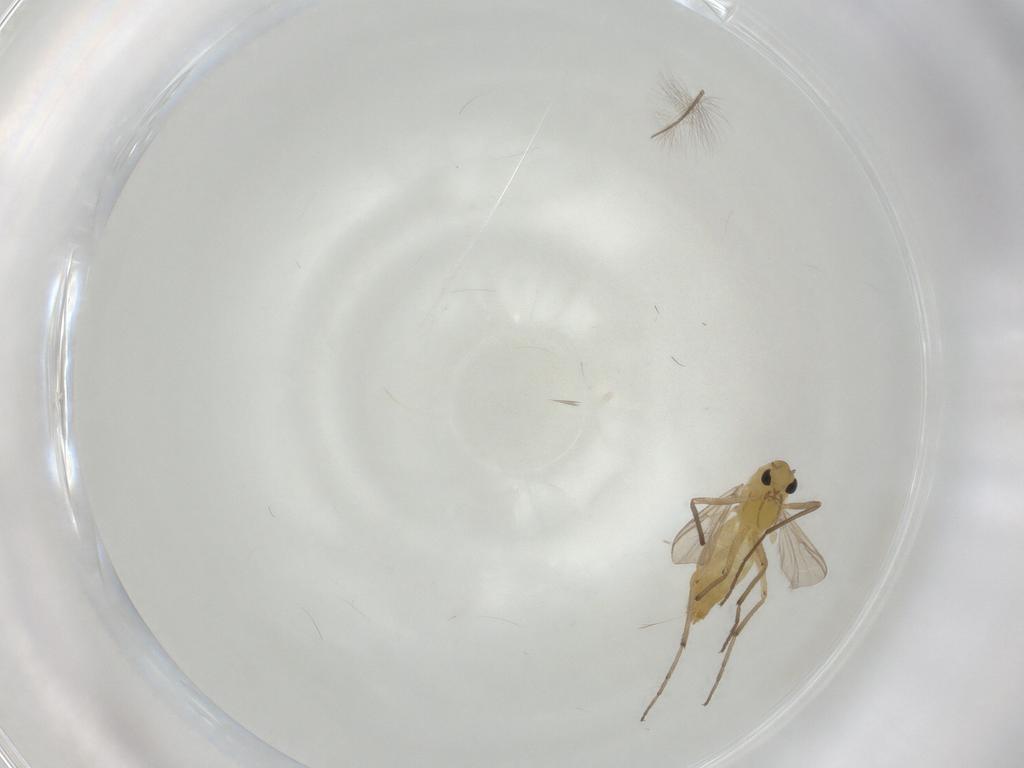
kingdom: Animalia
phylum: Arthropoda
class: Insecta
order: Diptera
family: Chironomidae
